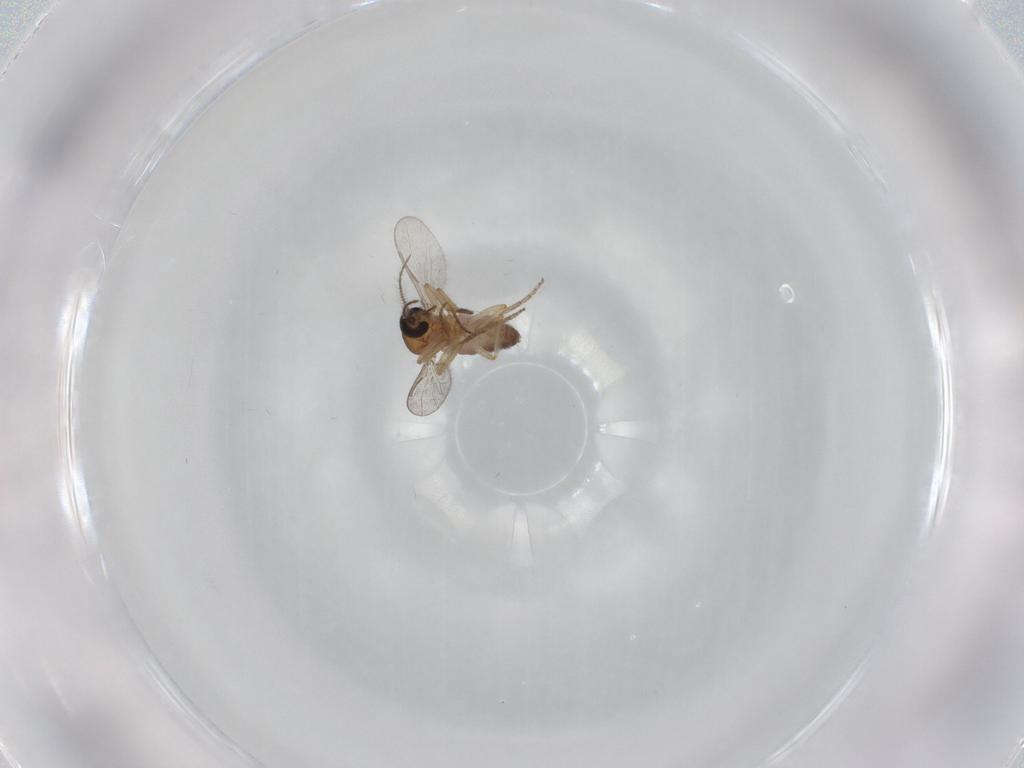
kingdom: Animalia
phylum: Arthropoda
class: Insecta
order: Diptera
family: Ceratopogonidae
